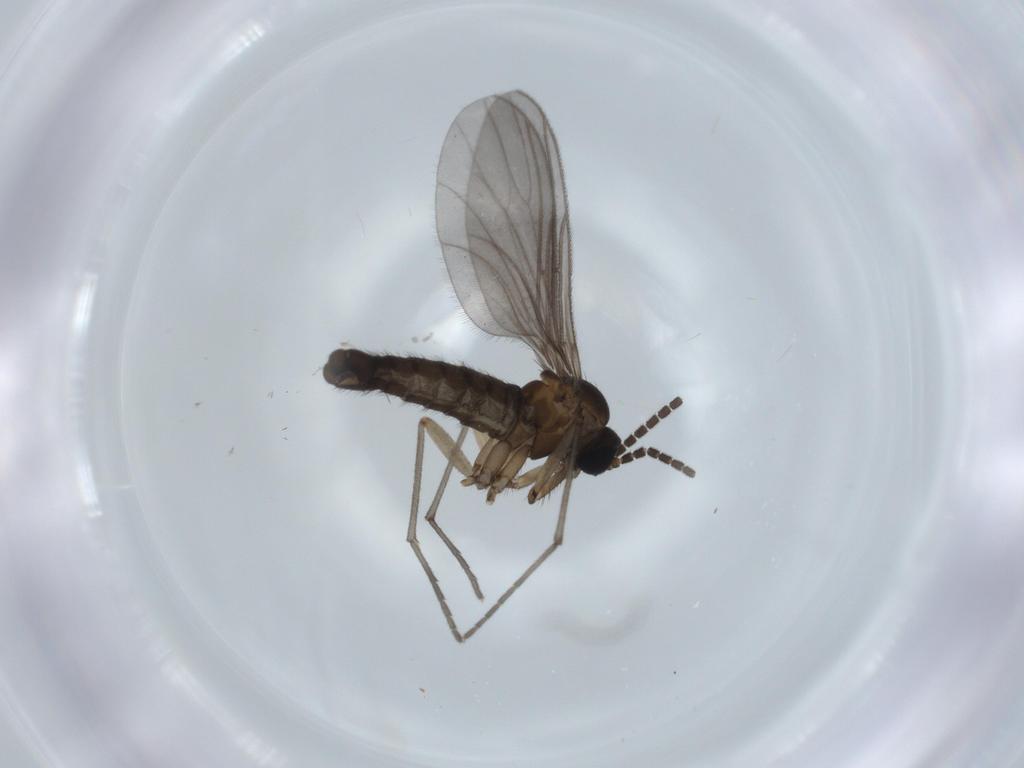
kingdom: Animalia
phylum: Arthropoda
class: Insecta
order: Diptera
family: Sciaridae
